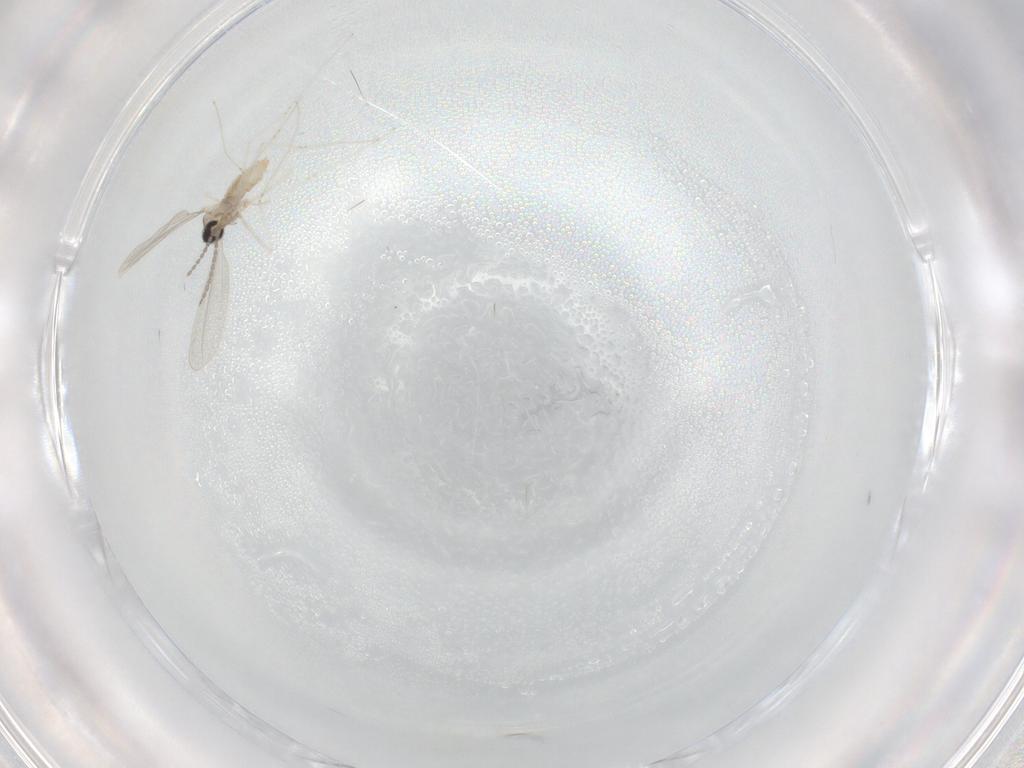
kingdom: Animalia
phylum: Arthropoda
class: Insecta
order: Diptera
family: Cecidomyiidae
